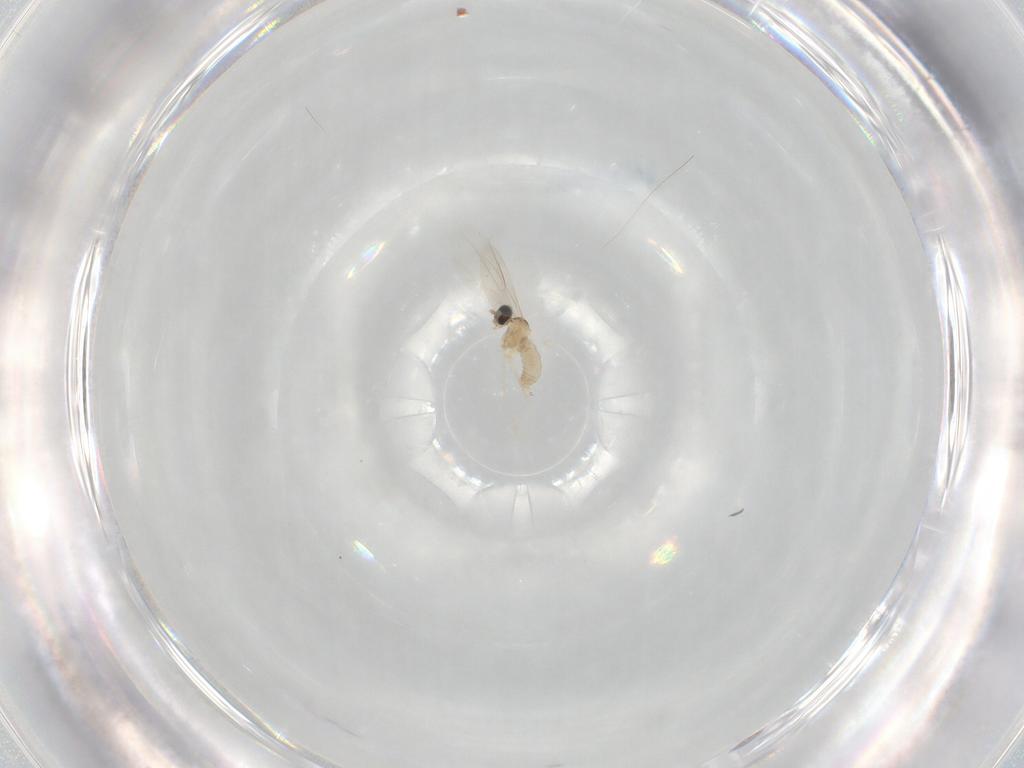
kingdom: Animalia
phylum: Arthropoda
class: Insecta
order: Diptera
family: Cecidomyiidae
